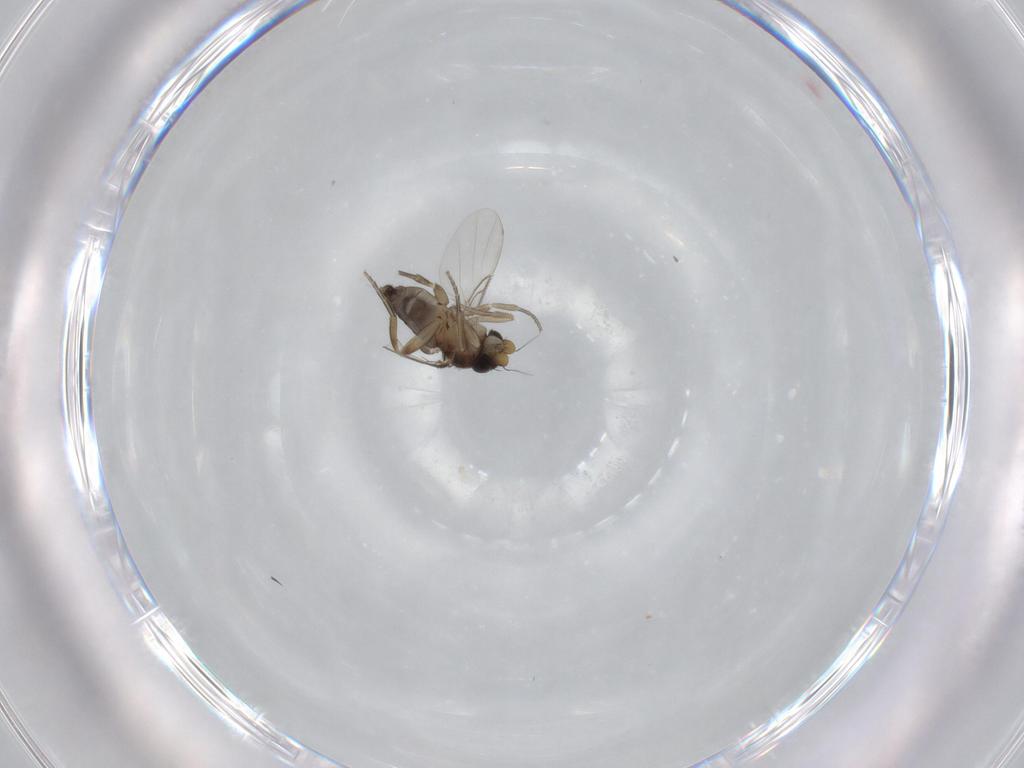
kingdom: Animalia
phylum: Arthropoda
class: Insecta
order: Diptera
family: Phoridae
